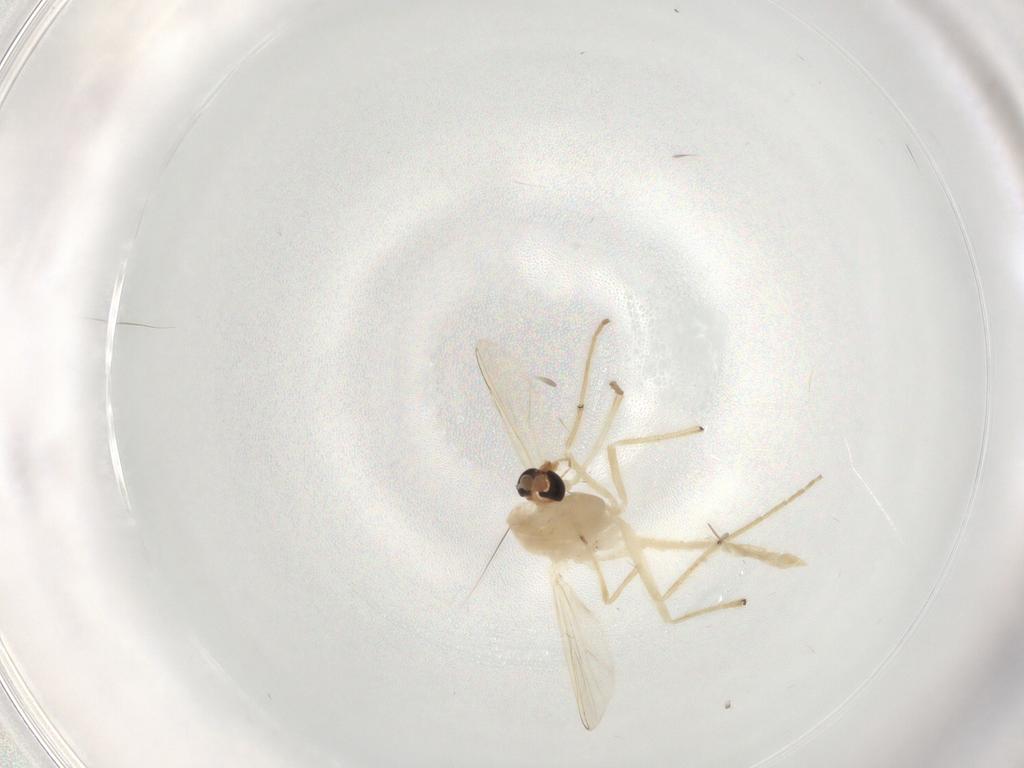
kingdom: Animalia
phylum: Arthropoda
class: Insecta
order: Diptera
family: Chironomidae
